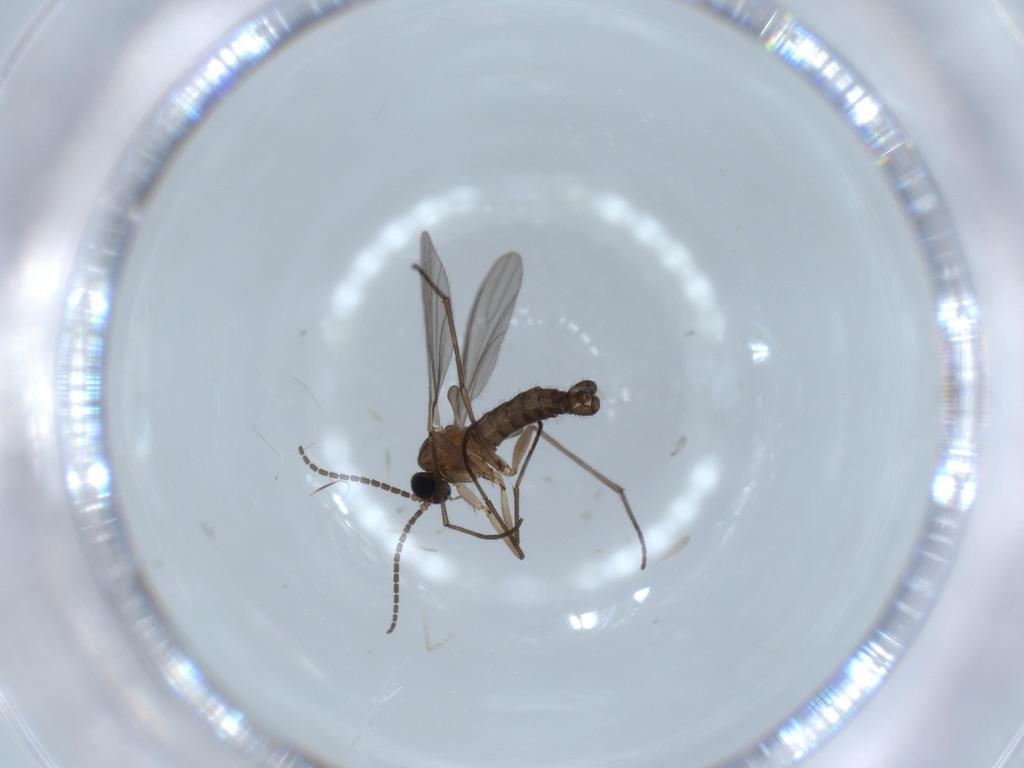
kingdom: Animalia
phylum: Arthropoda
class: Insecta
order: Diptera
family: Sciaridae
